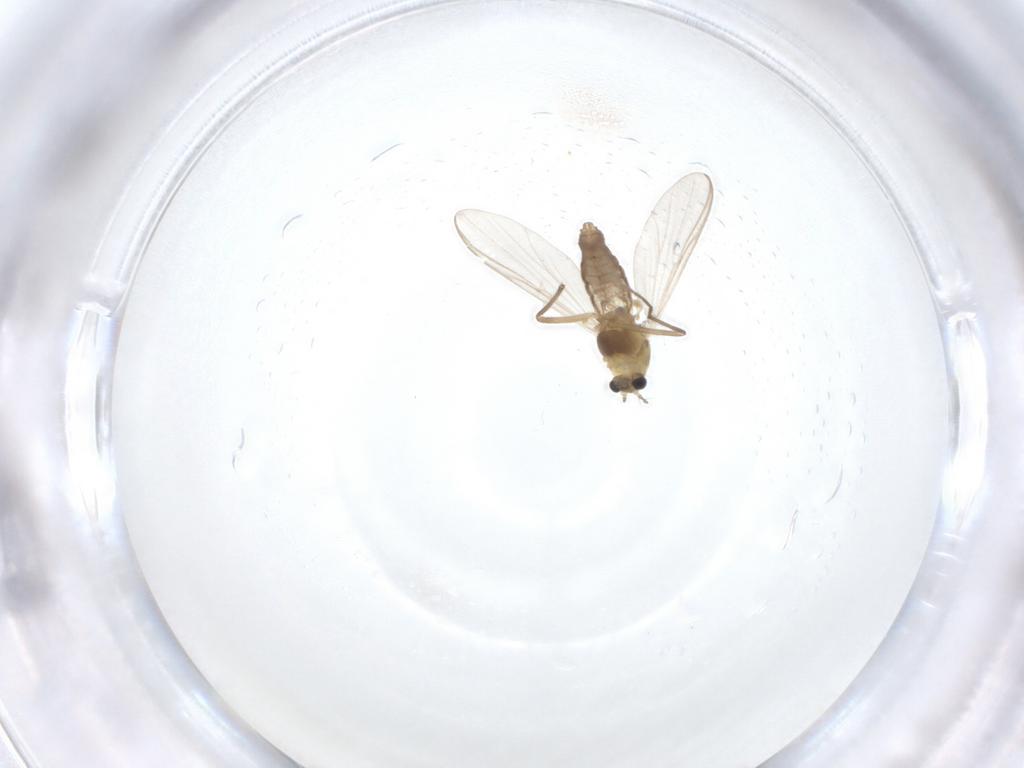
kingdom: Animalia
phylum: Arthropoda
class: Insecta
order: Diptera
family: Chironomidae
